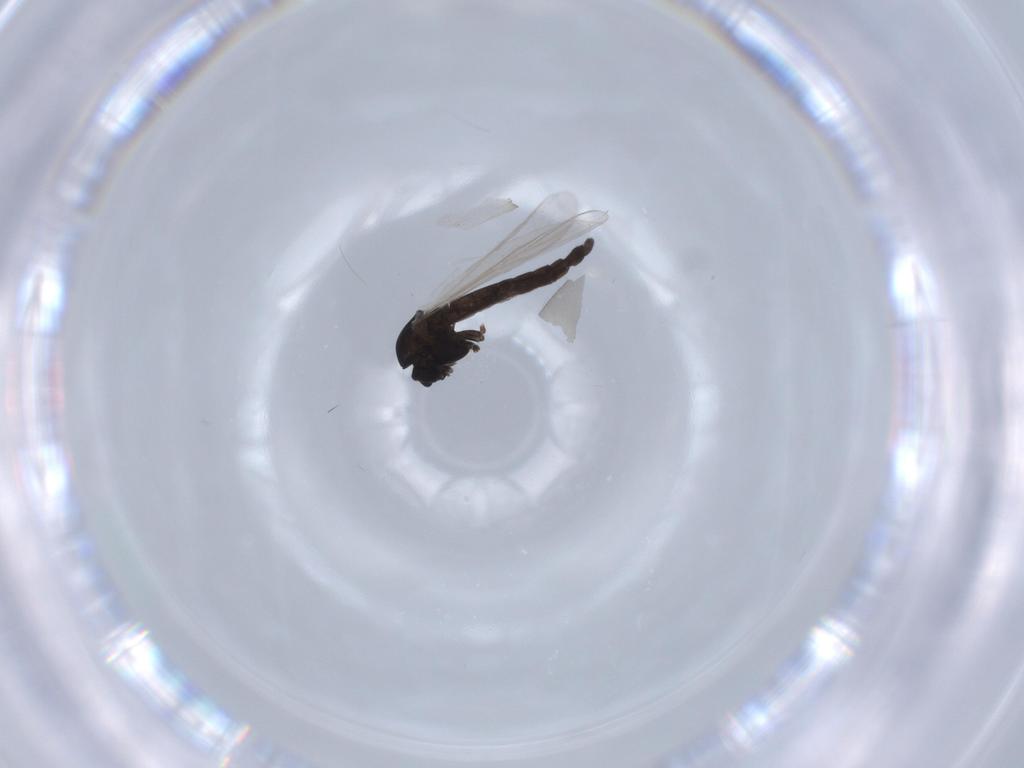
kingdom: Animalia
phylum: Arthropoda
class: Insecta
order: Diptera
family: Chironomidae
